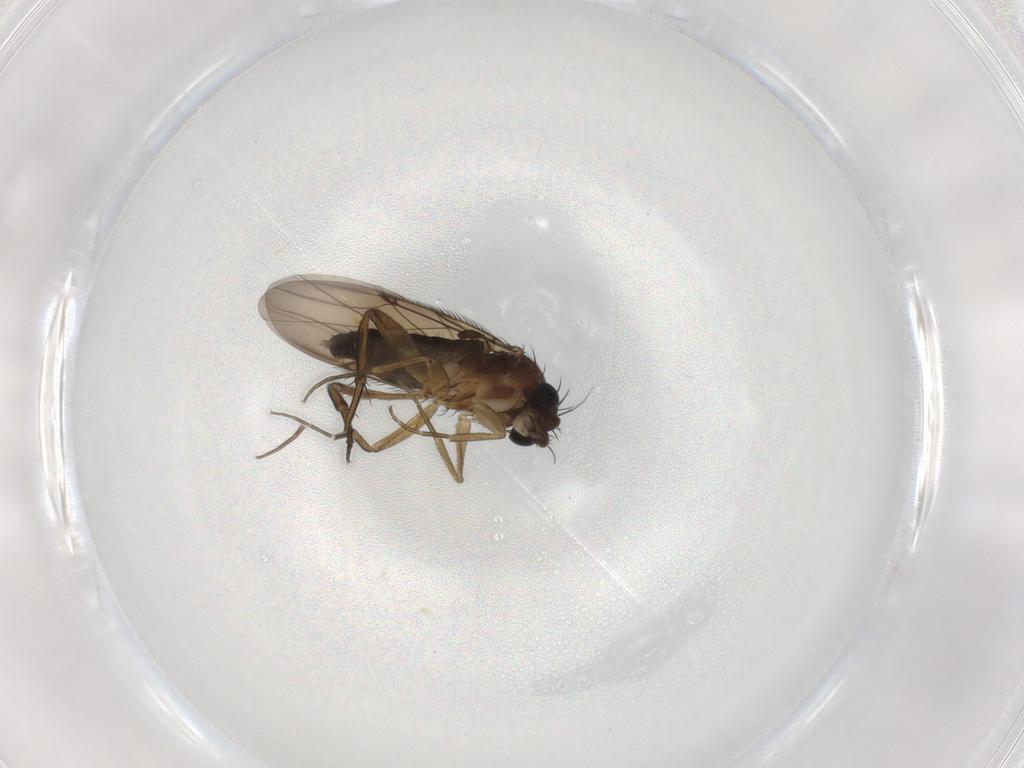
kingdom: Animalia
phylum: Arthropoda
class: Insecta
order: Diptera
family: Phoridae
